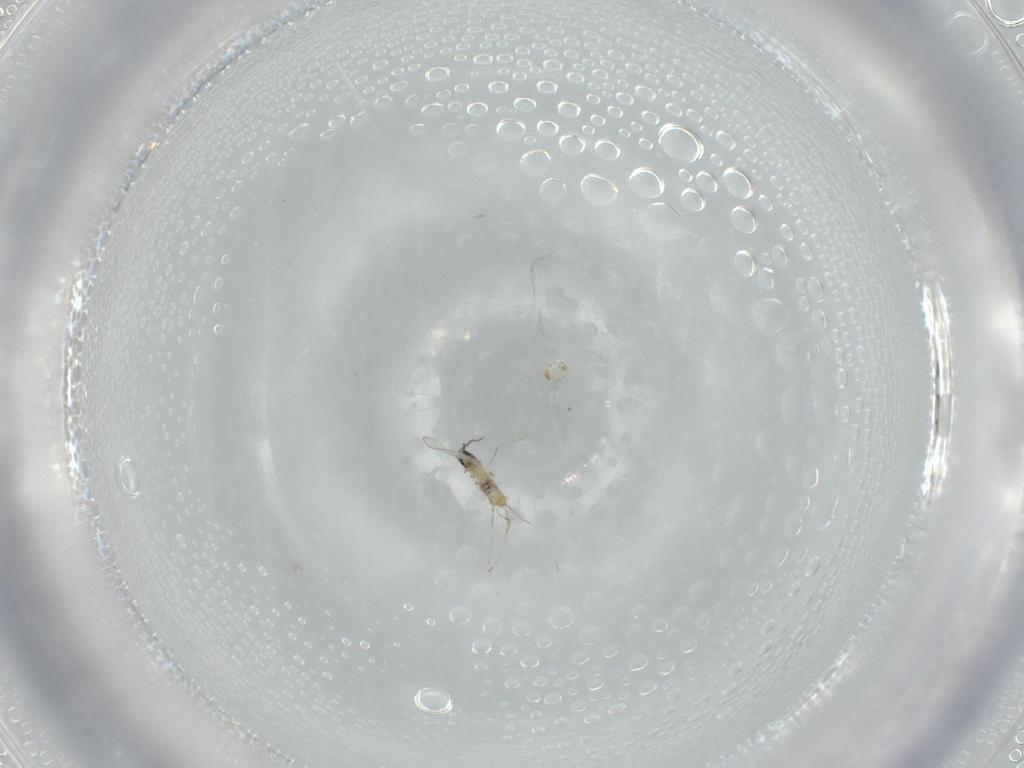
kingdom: Animalia
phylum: Arthropoda
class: Insecta
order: Diptera
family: Cecidomyiidae
